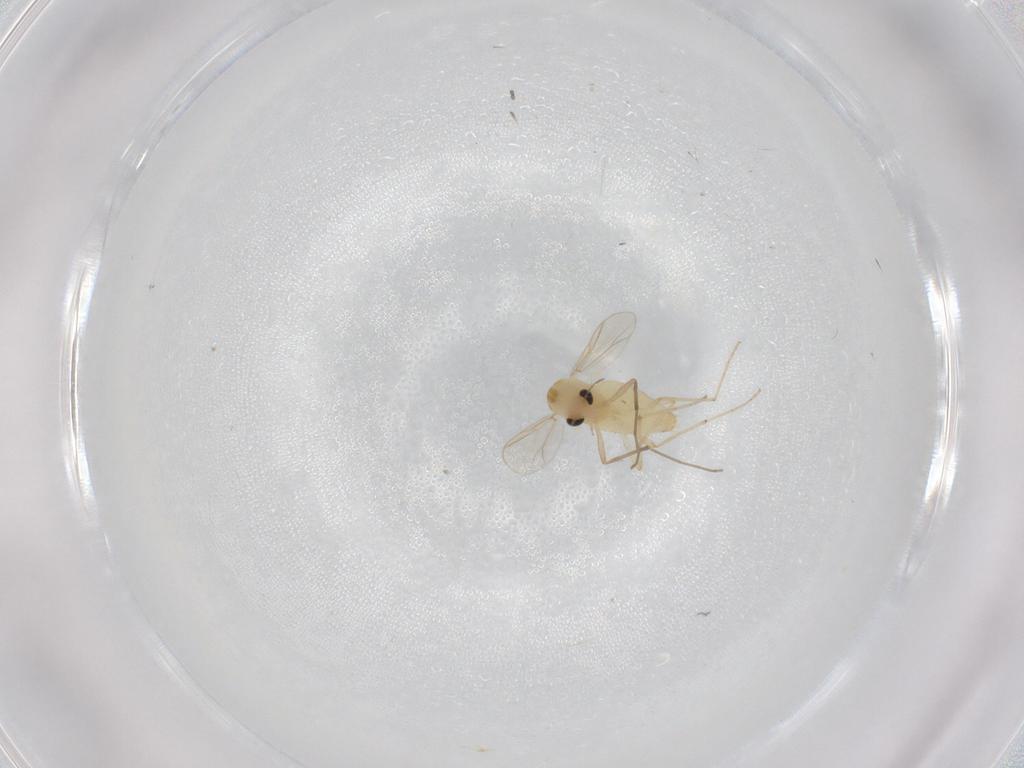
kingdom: Animalia
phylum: Arthropoda
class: Insecta
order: Diptera
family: Chironomidae
